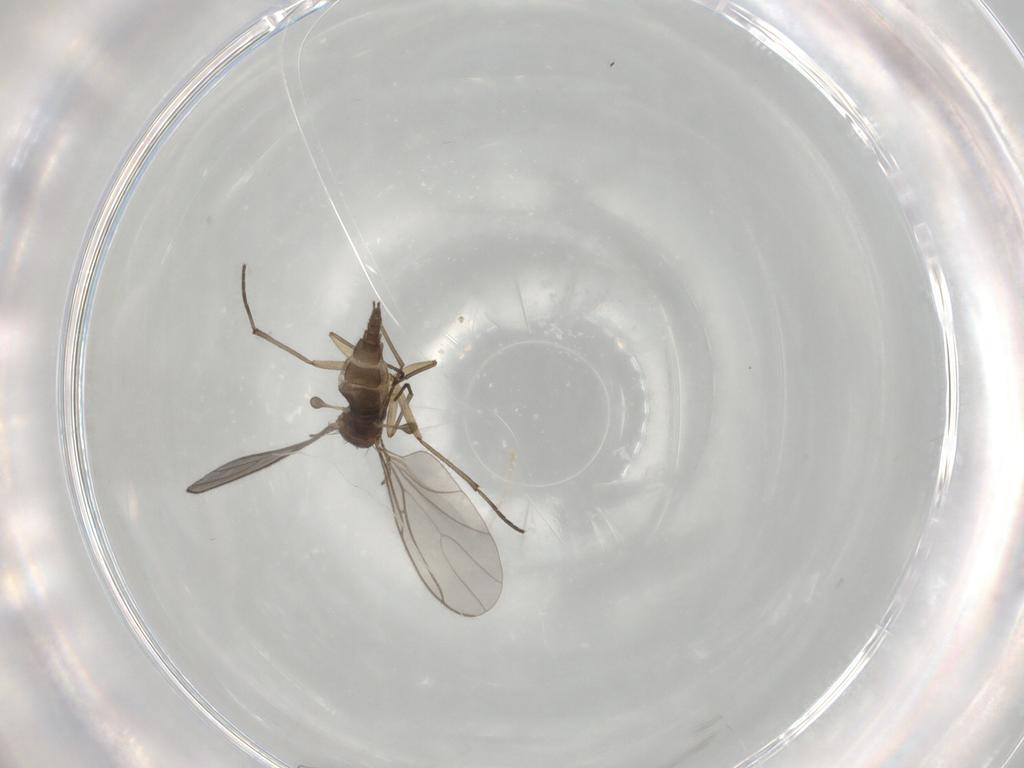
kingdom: Animalia
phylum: Arthropoda
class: Insecta
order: Diptera
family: Sciaridae
